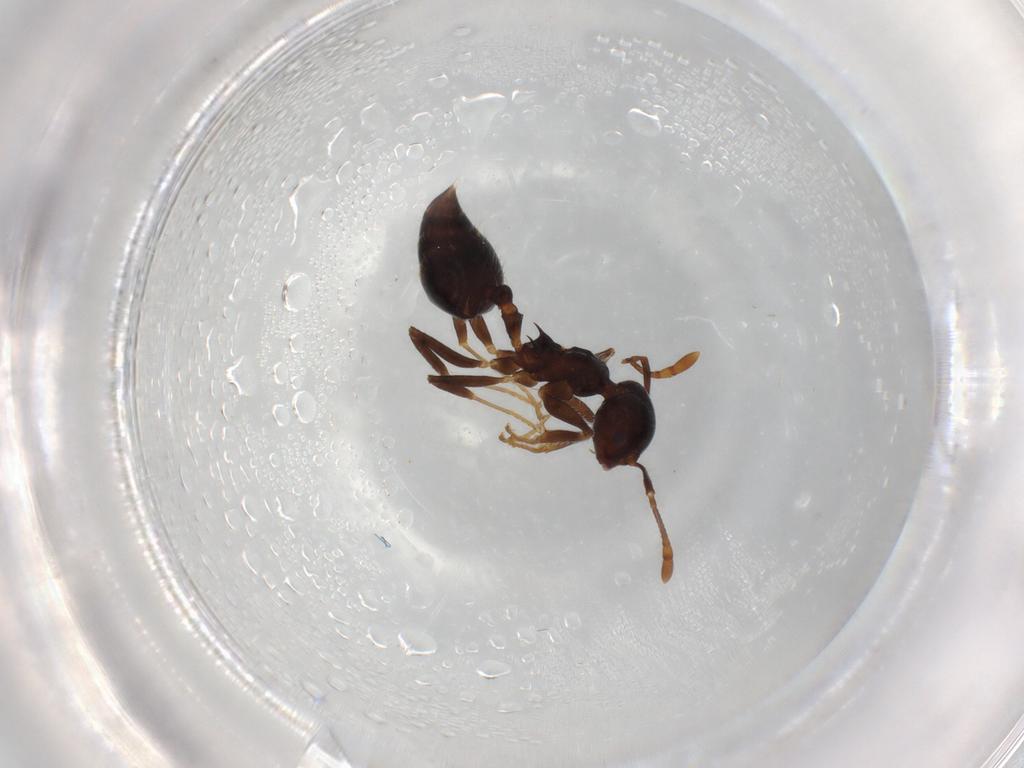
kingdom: Animalia
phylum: Arthropoda
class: Insecta
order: Hymenoptera
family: Formicidae
